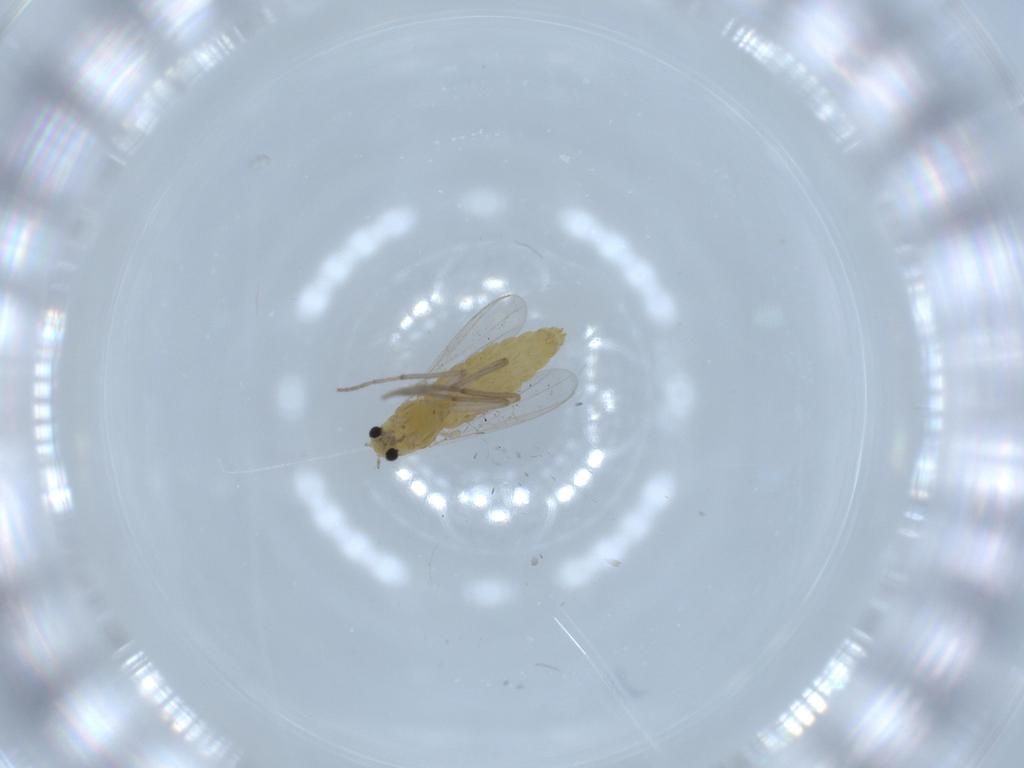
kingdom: Animalia
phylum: Arthropoda
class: Insecta
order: Diptera
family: Chironomidae
